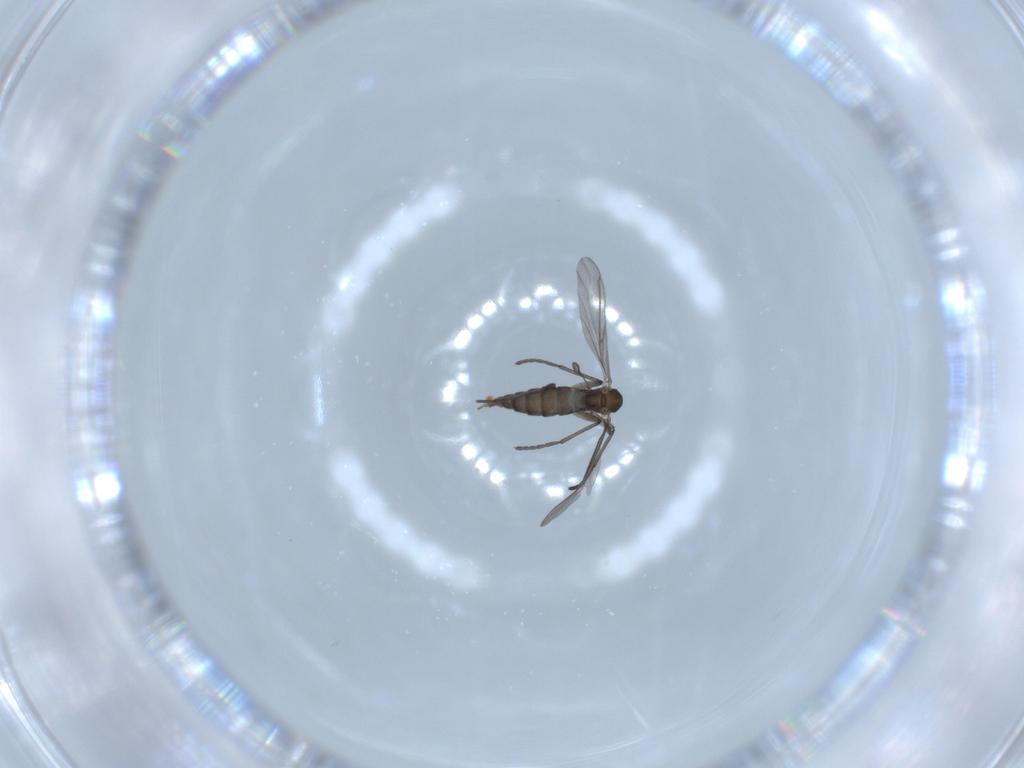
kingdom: Animalia
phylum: Arthropoda
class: Insecta
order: Diptera
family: Sciaridae
